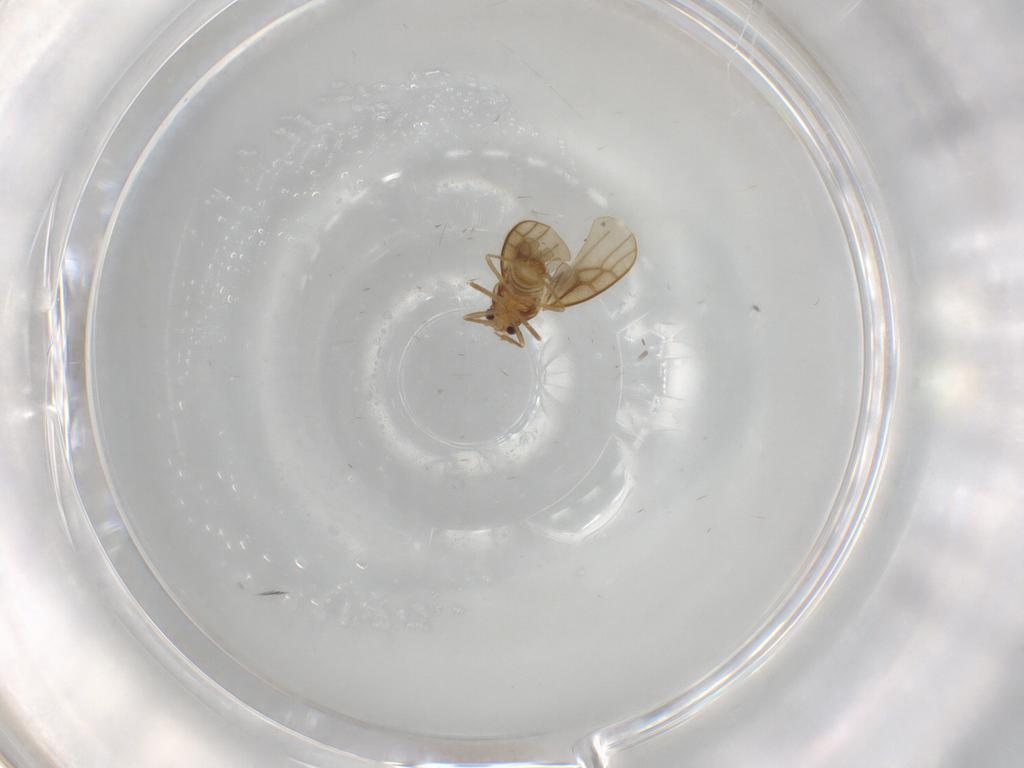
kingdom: Animalia
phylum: Arthropoda
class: Insecta
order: Hemiptera
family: Schizopteridae
